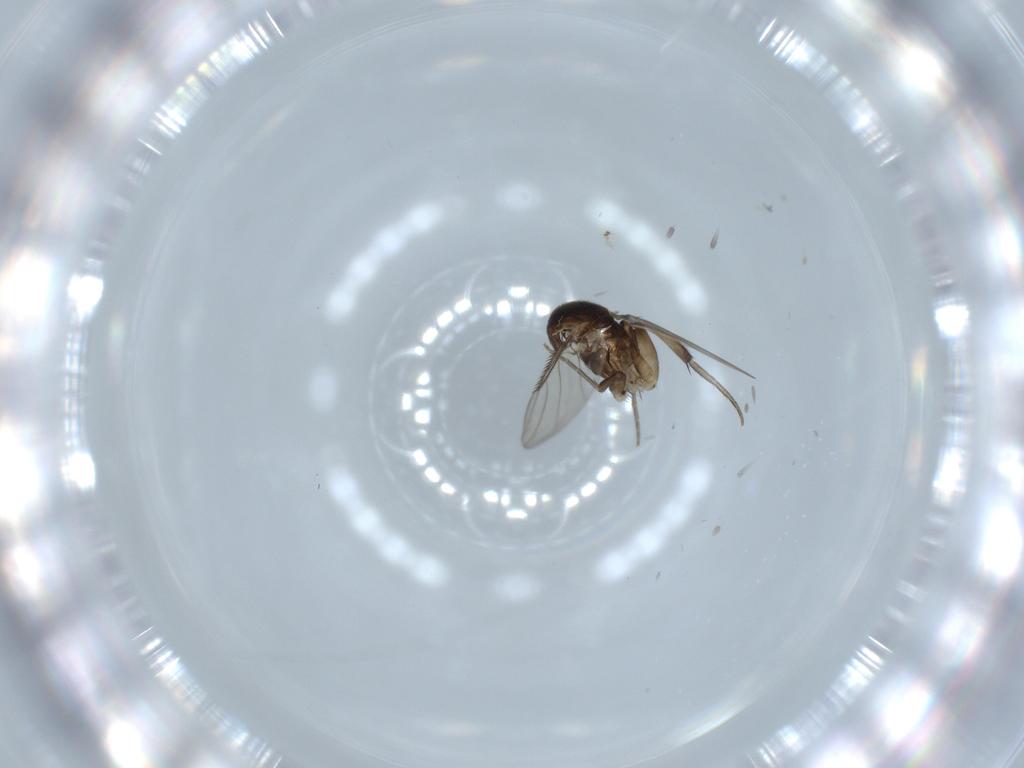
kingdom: Animalia
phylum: Arthropoda
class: Insecta
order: Diptera
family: Phoridae
